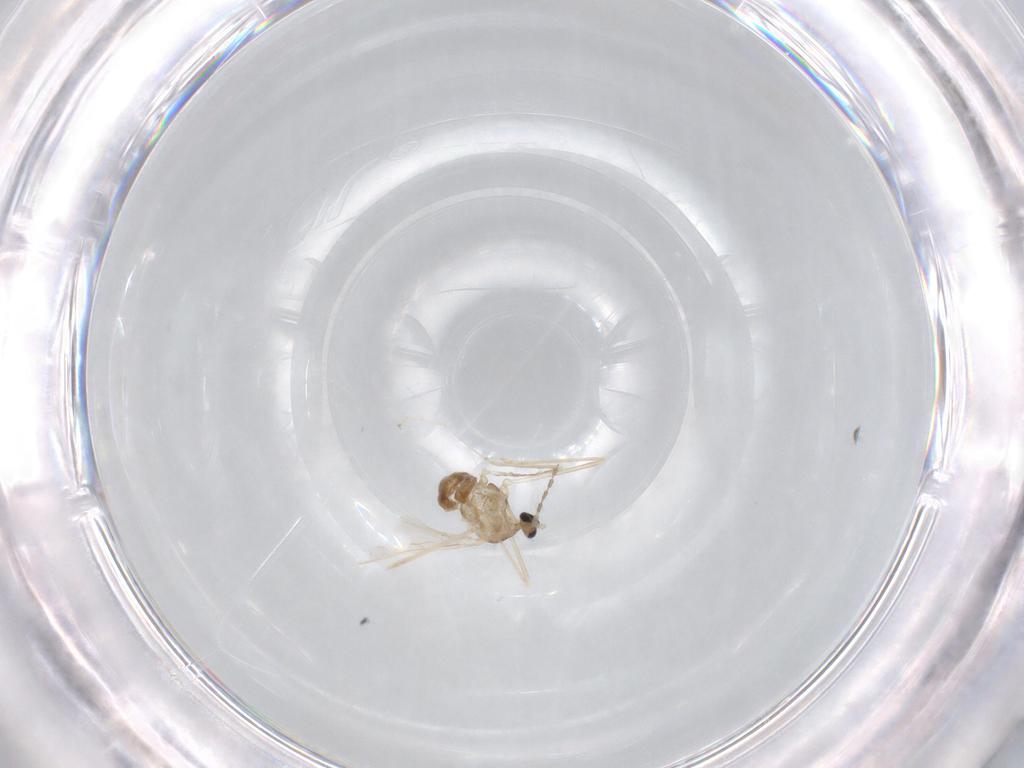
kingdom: Animalia
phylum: Arthropoda
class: Insecta
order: Diptera
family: Cecidomyiidae
